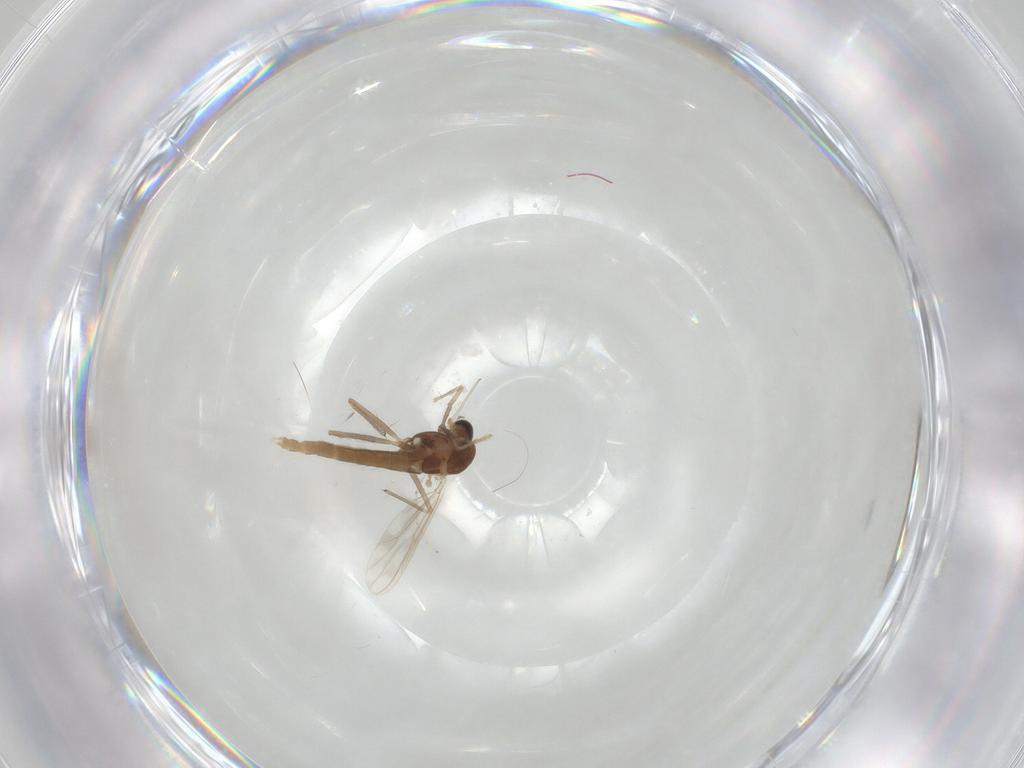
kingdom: Animalia
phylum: Arthropoda
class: Insecta
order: Diptera
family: Chironomidae
